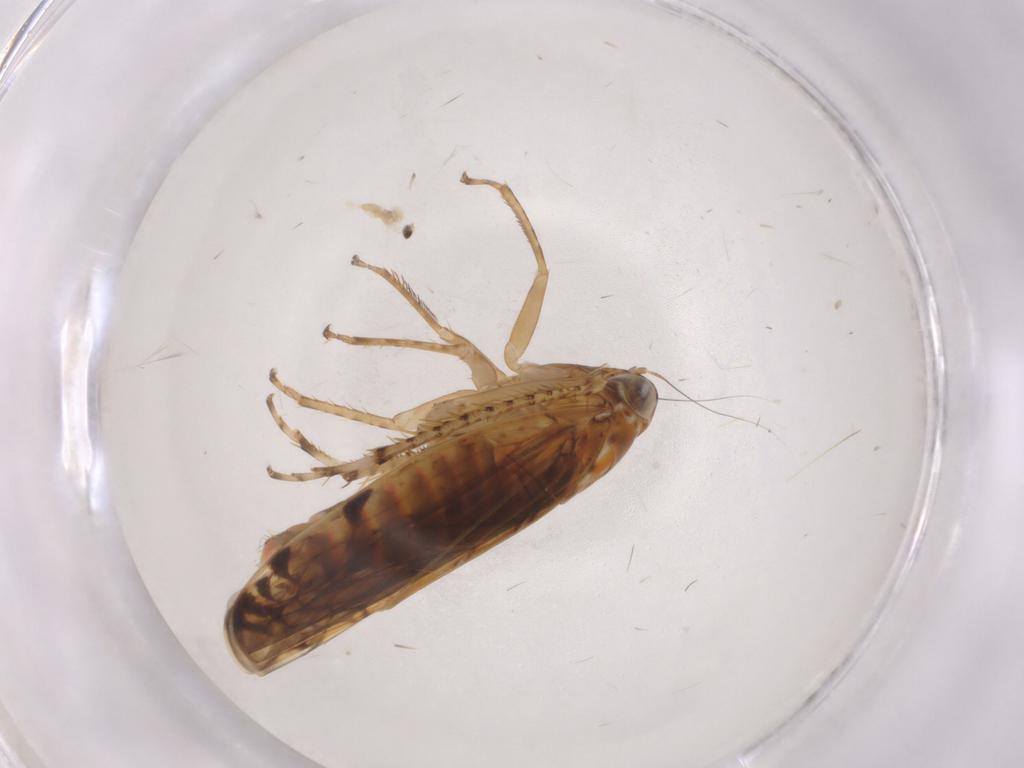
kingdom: Animalia
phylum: Arthropoda
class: Insecta
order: Hemiptera
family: Cicadellidae
